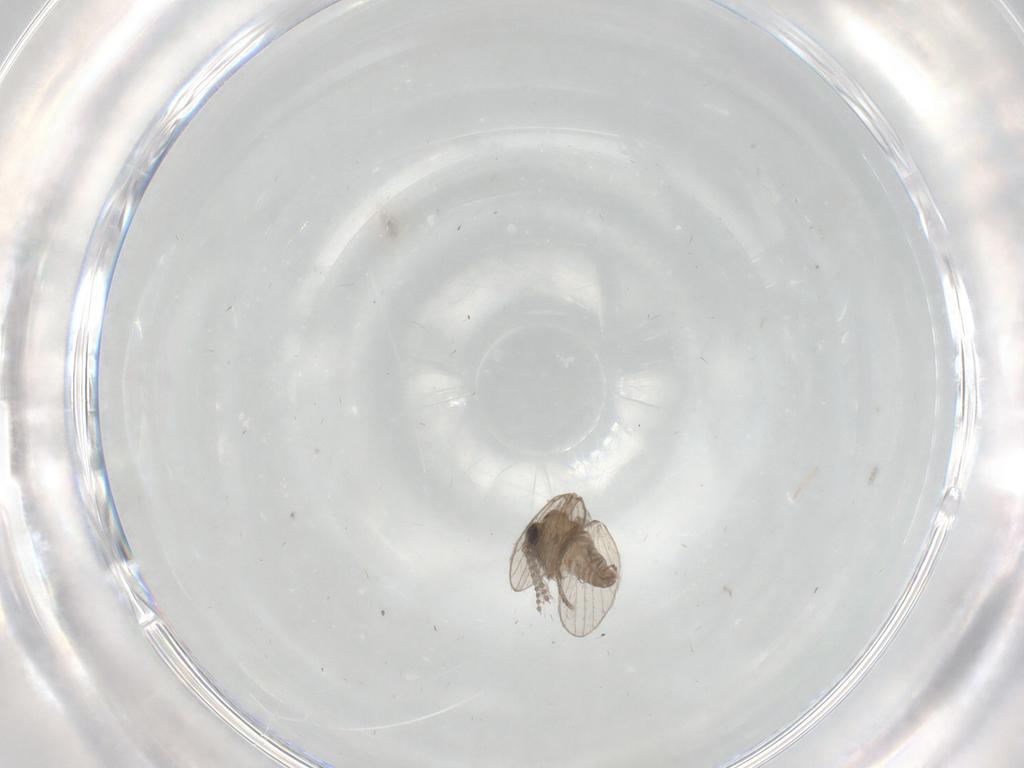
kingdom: Animalia
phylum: Arthropoda
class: Insecta
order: Diptera
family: Psychodidae
